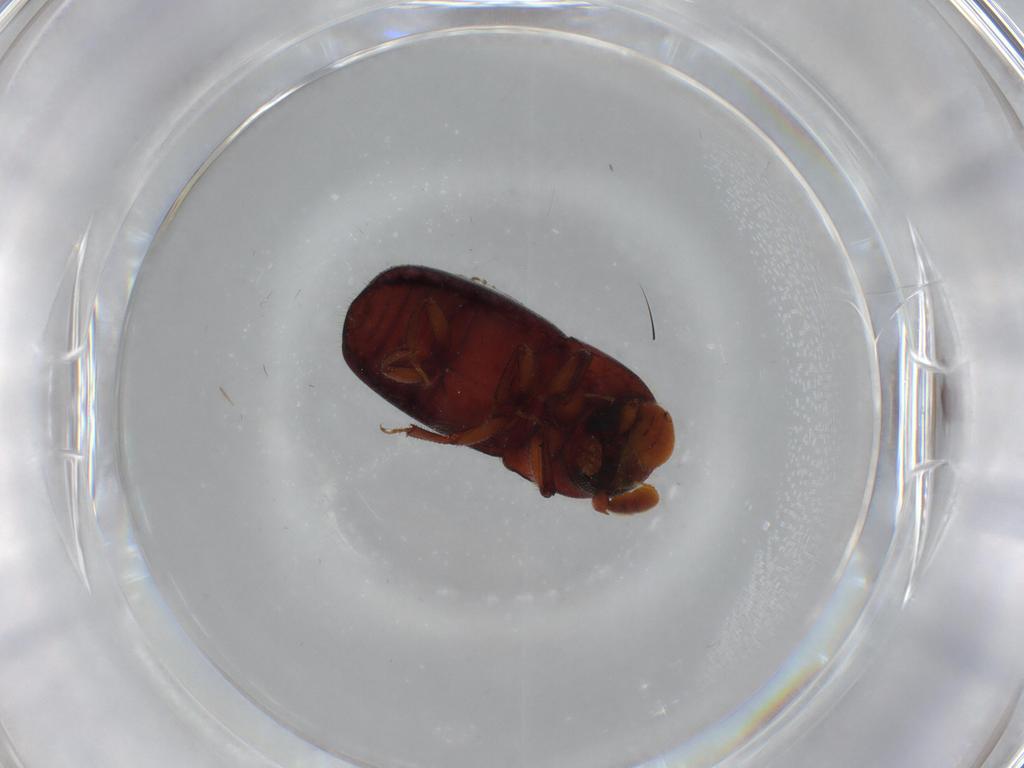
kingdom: Animalia
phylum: Arthropoda
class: Insecta
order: Coleoptera
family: Curculionidae
